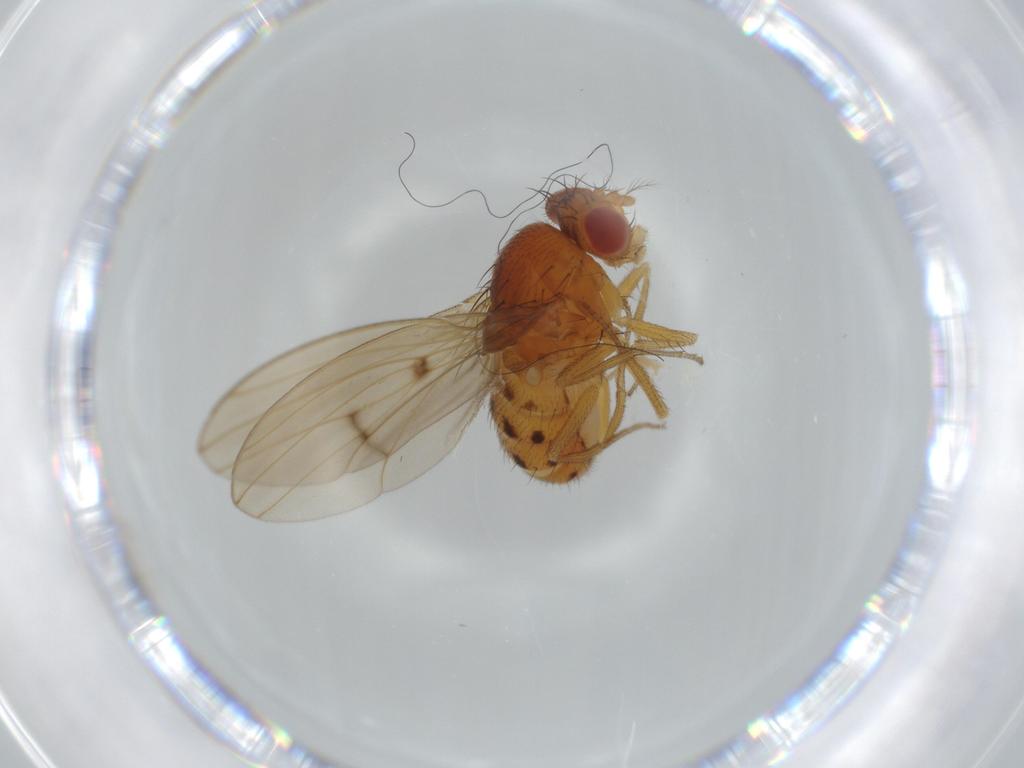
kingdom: Animalia
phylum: Arthropoda
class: Insecta
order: Diptera
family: Drosophilidae
